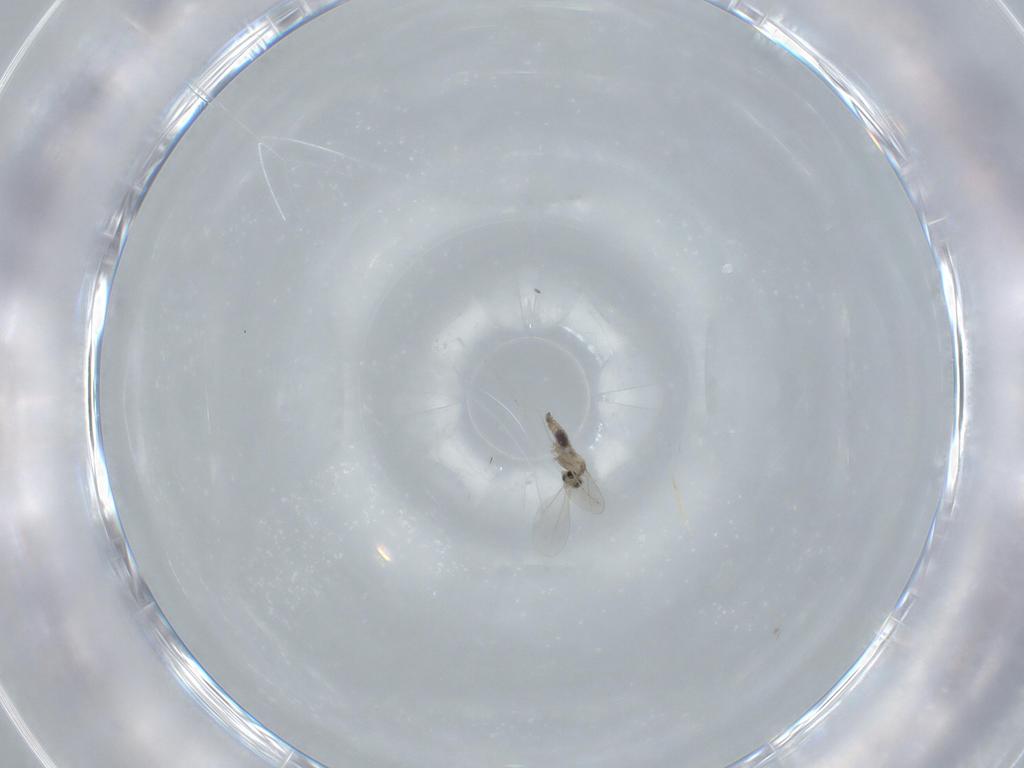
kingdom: Animalia
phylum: Arthropoda
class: Insecta
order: Diptera
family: Cecidomyiidae
